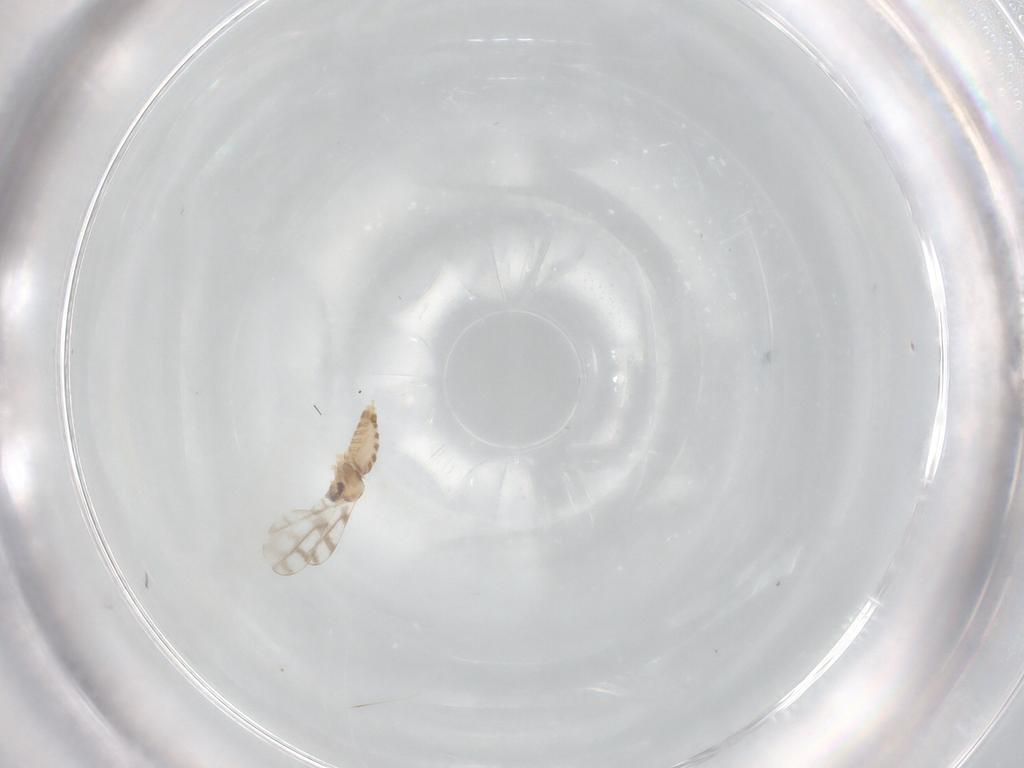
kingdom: Animalia
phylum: Arthropoda
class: Insecta
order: Diptera
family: Cecidomyiidae
